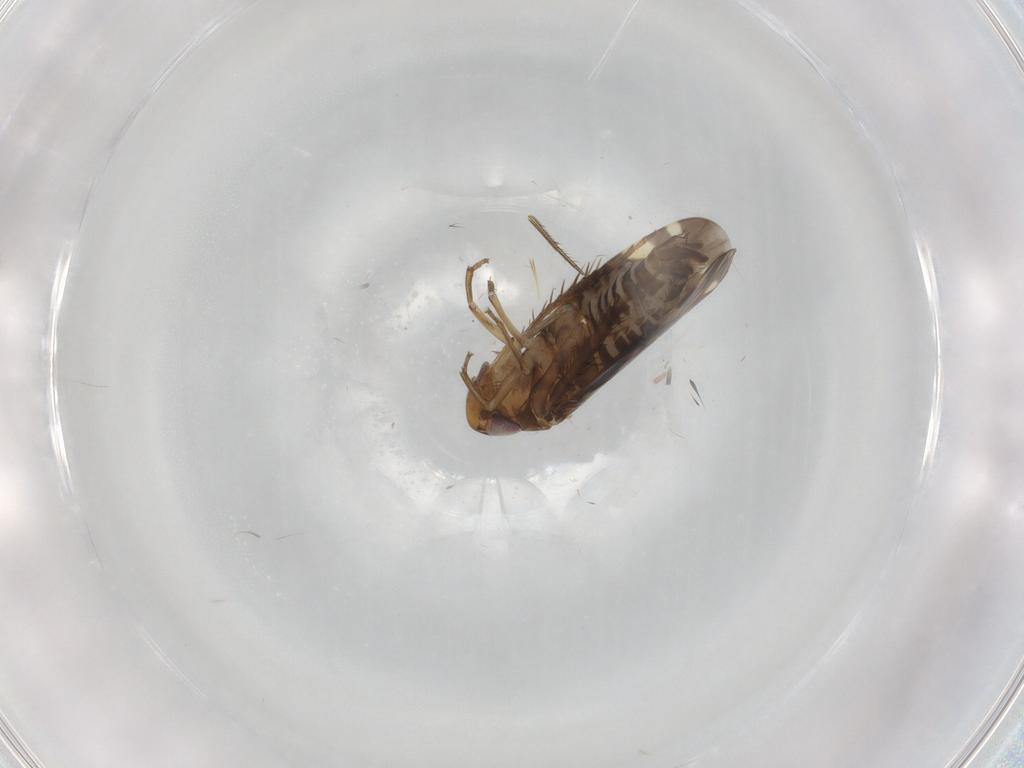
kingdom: Animalia
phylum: Arthropoda
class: Insecta
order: Hemiptera
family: Cicadellidae
